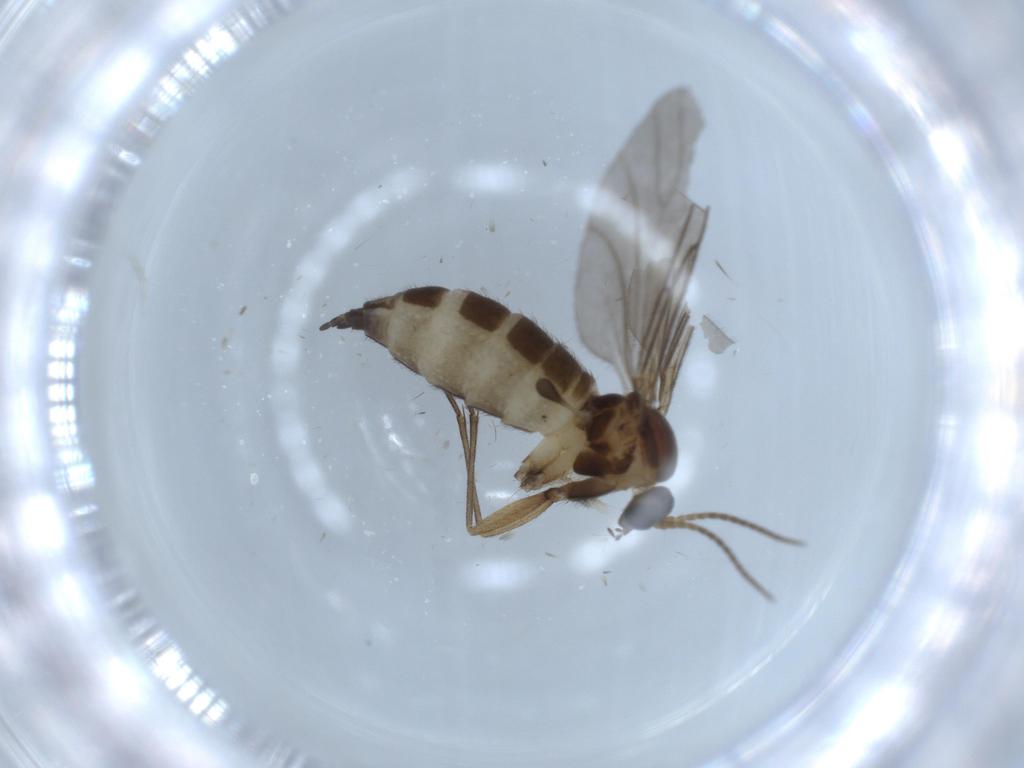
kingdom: Animalia
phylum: Arthropoda
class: Insecta
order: Diptera
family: Sciaridae
